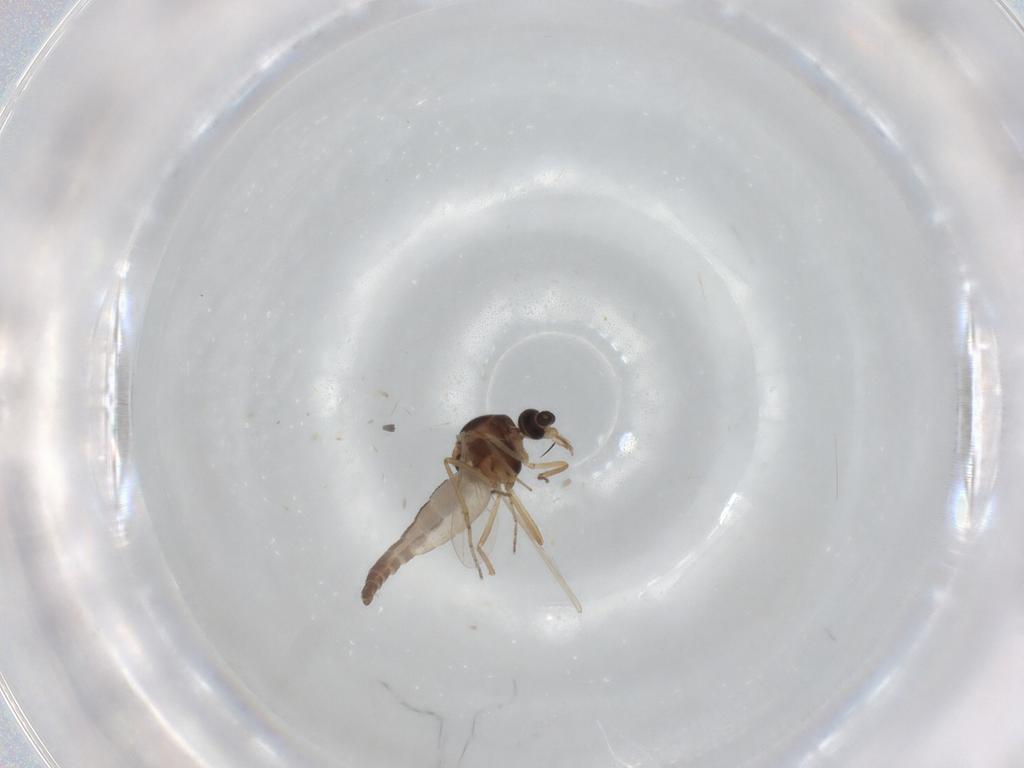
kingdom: Animalia
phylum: Arthropoda
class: Insecta
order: Diptera
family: Ceratopogonidae
